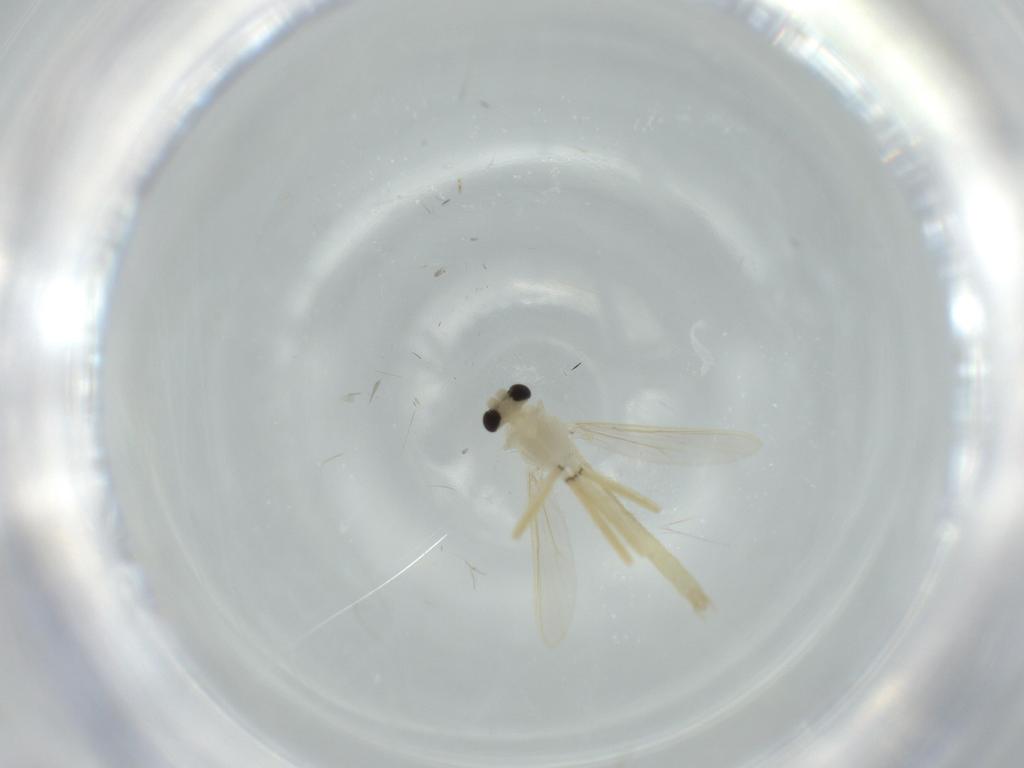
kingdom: Animalia
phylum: Arthropoda
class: Insecta
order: Diptera
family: Chironomidae
